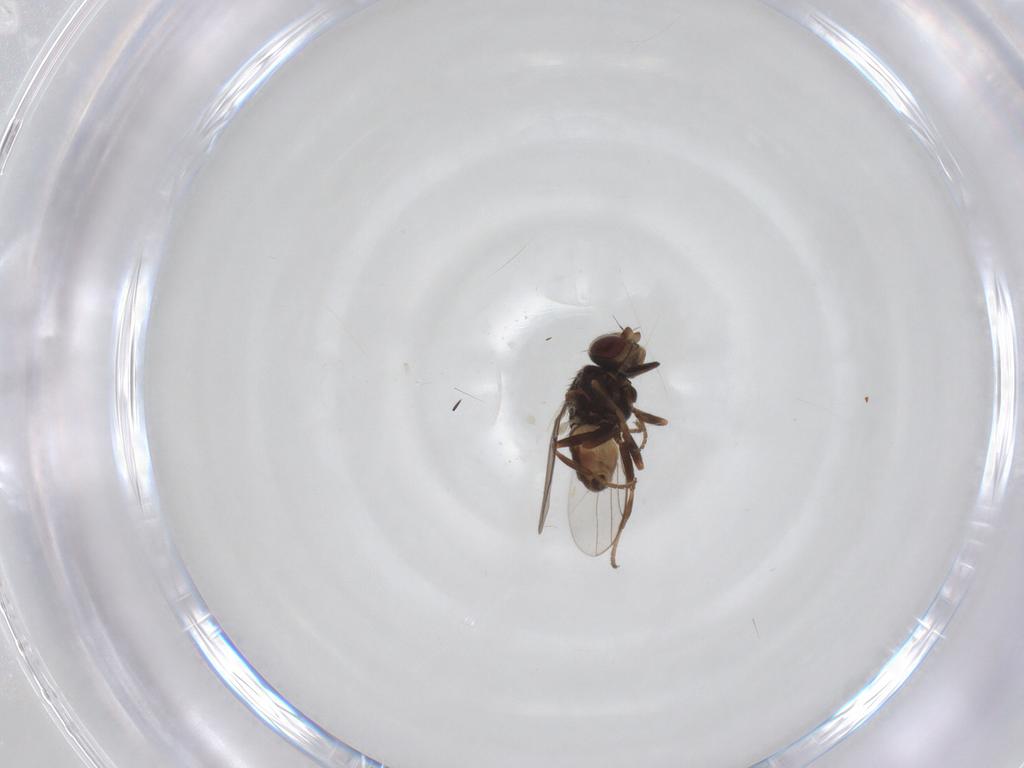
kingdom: Animalia
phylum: Arthropoda
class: Insecta
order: Diptera
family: Chloropidae
